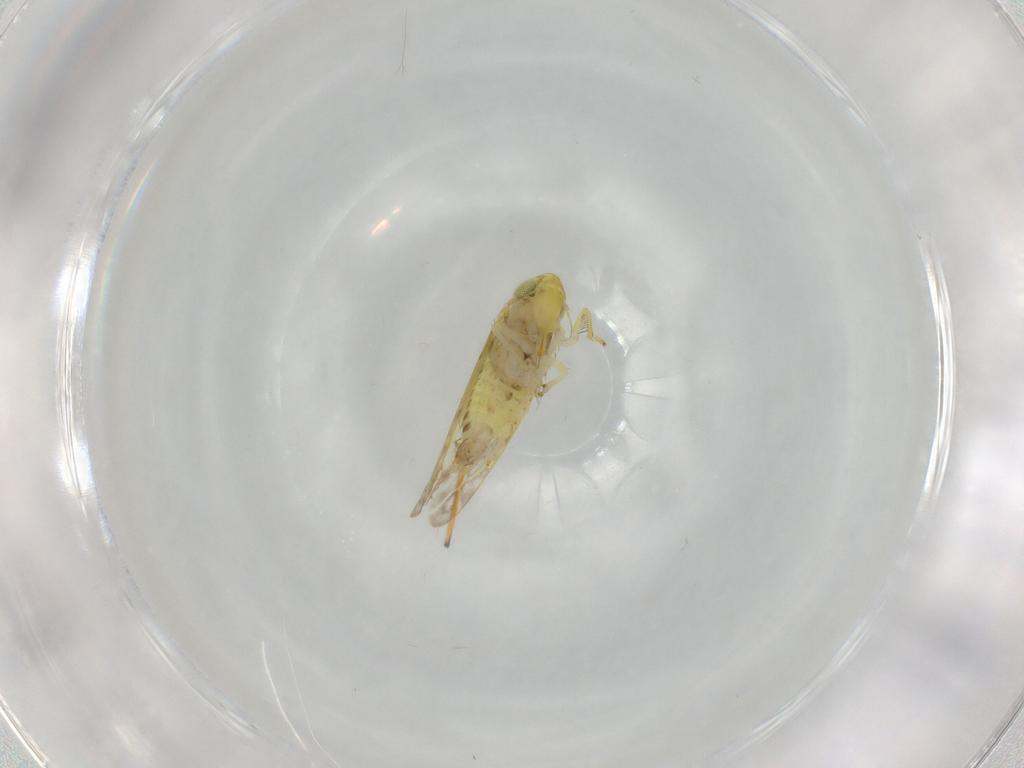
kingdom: Animalia
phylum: Arthropoda
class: Insecta
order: Hemiptera
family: Cicadellidae
